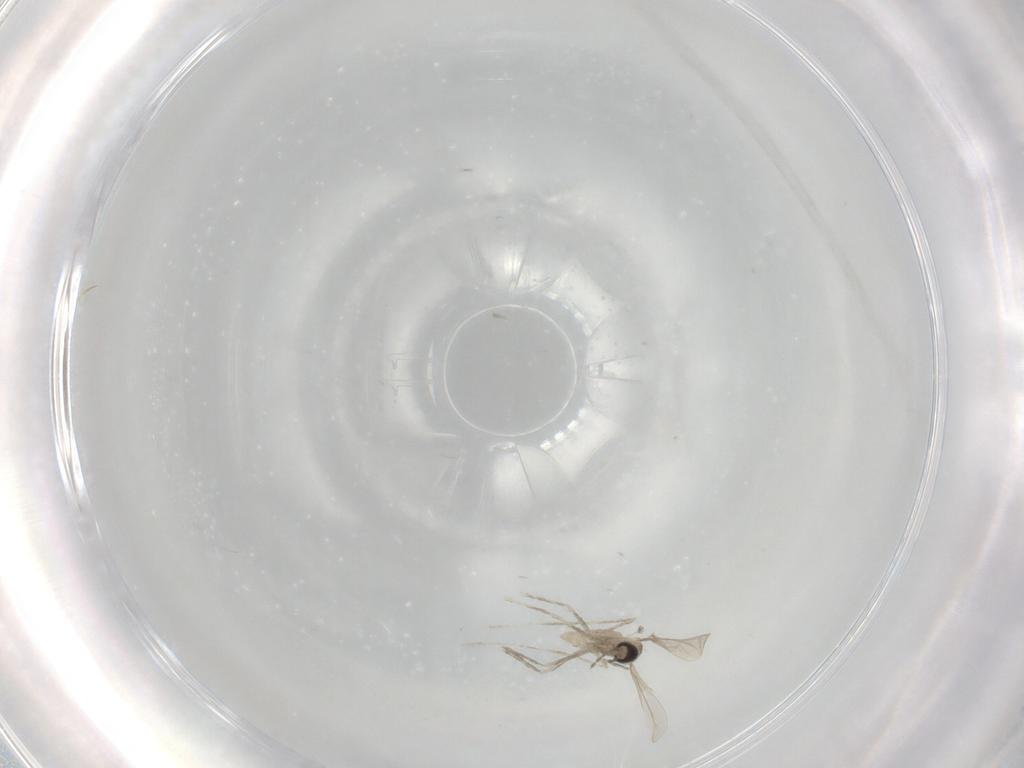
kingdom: Animalia
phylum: Arthropoda
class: Insecta
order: Diptera
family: Cecidomyiidae
